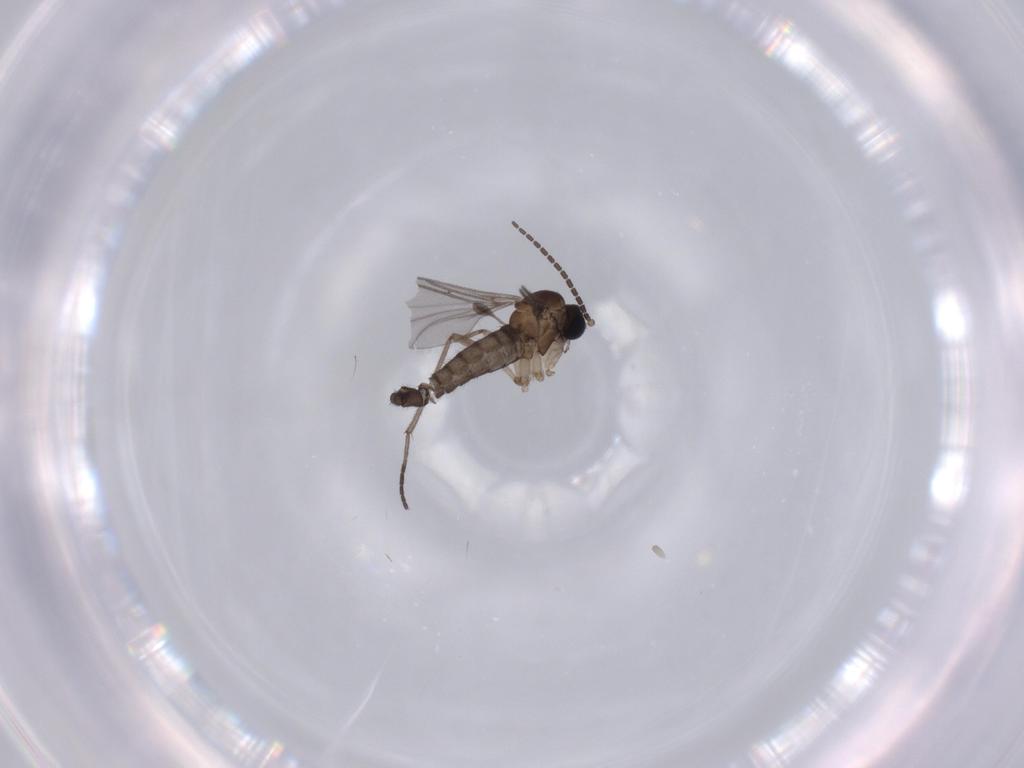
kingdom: Animalia
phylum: Arthropoda
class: Insecta
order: Diptera
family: Sciaridae
